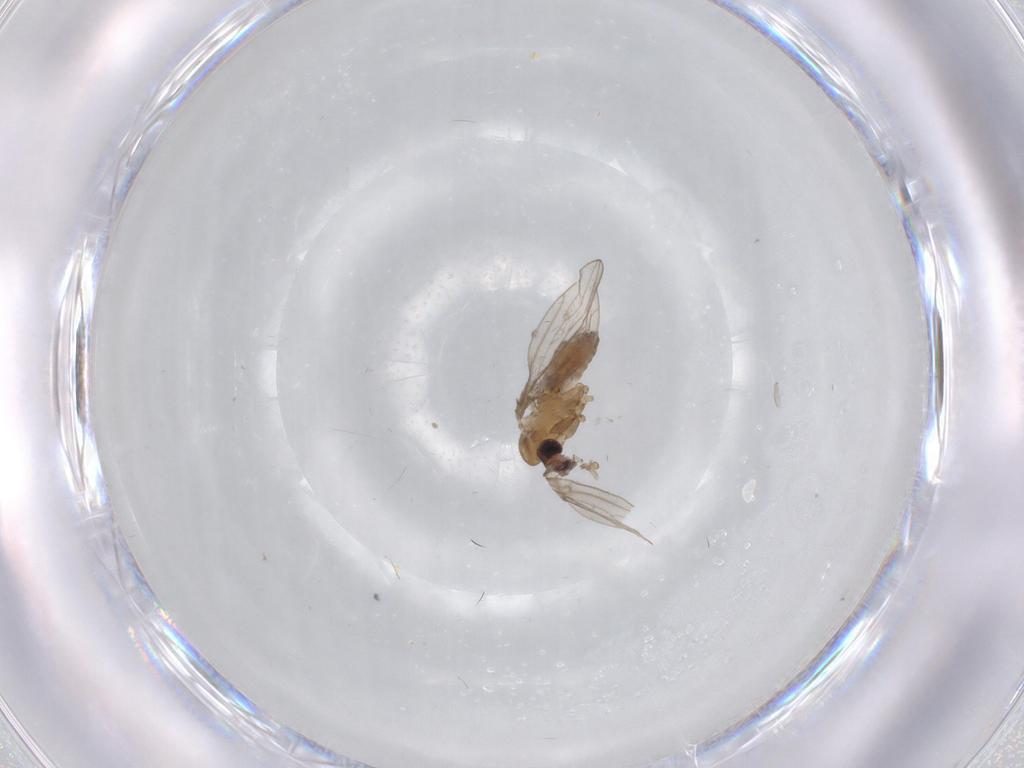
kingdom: Animalia
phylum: Arthropoda
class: Insecta
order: Diptera
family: Psychodidae
